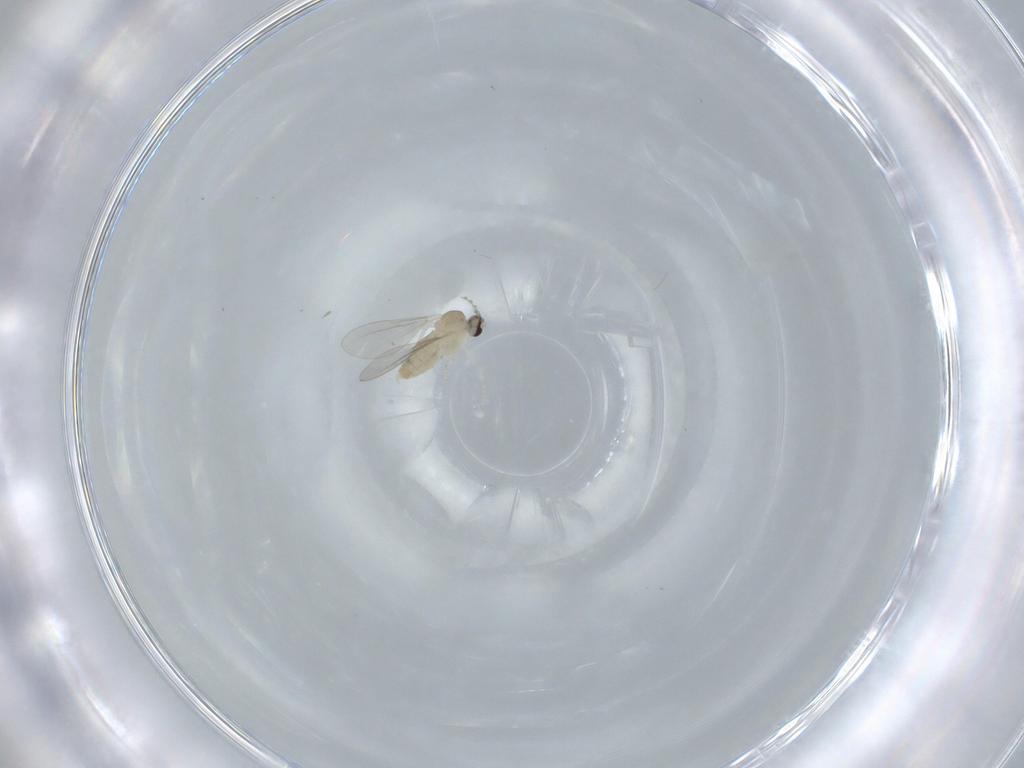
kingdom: Animalia
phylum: Arthropoda
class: Insecta
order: Diptera
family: Cecidomyiidae
